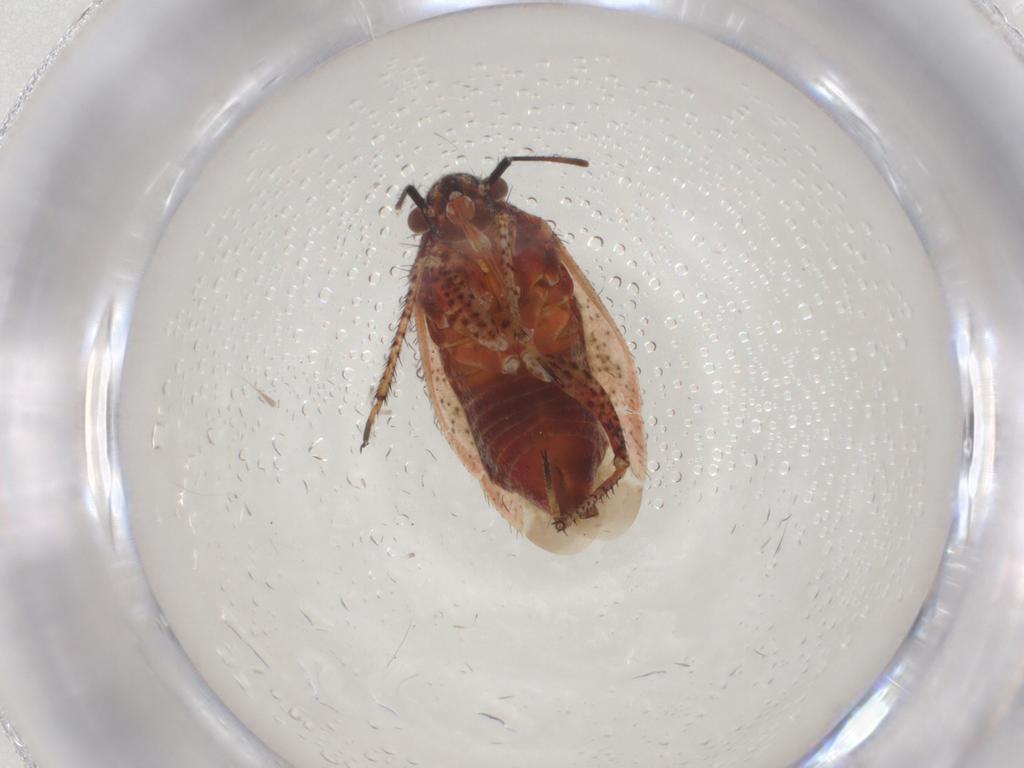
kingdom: Animalia
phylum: Arthropoda
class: Insecta
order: Hemiptera
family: Miridae
